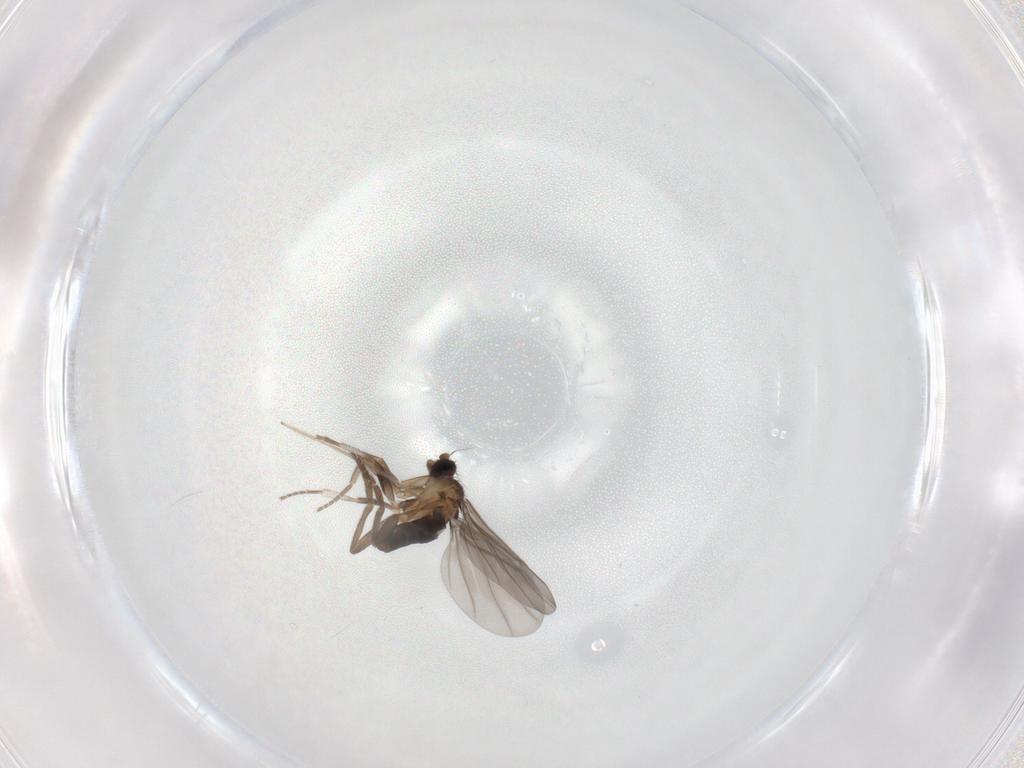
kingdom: Animalia
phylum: Arthropoda
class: Insecta
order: Diptera
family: Phoridae
